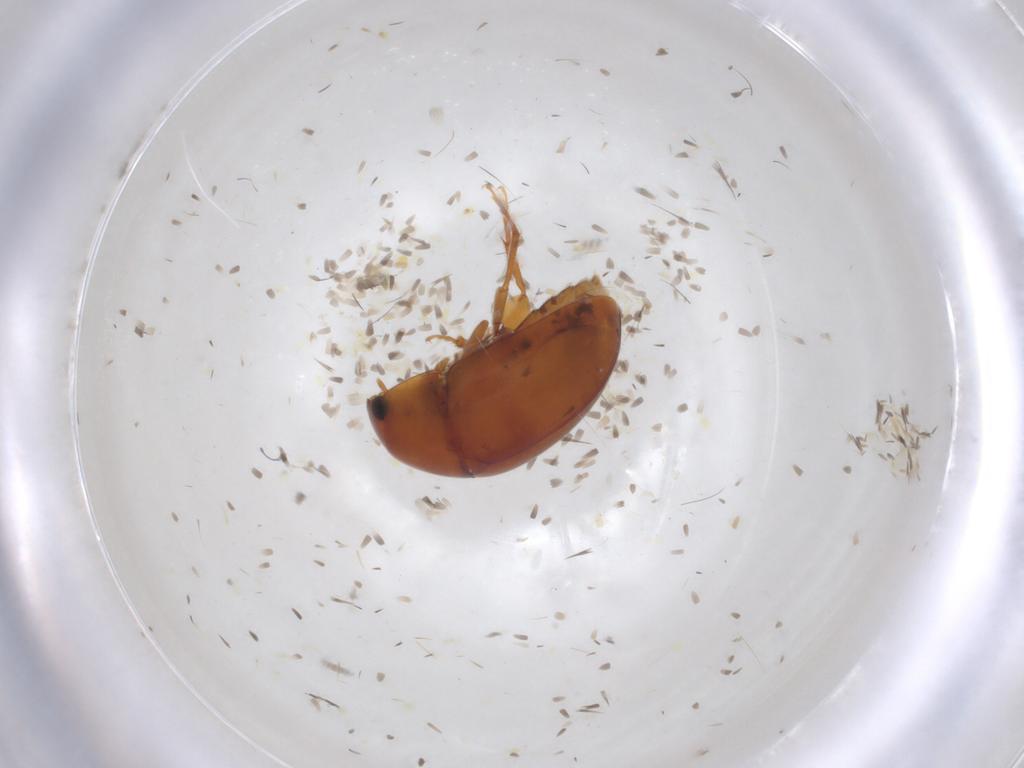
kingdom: Animalia
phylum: Arthropoda
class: Insecta
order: Coleoptera
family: Phalacridae
